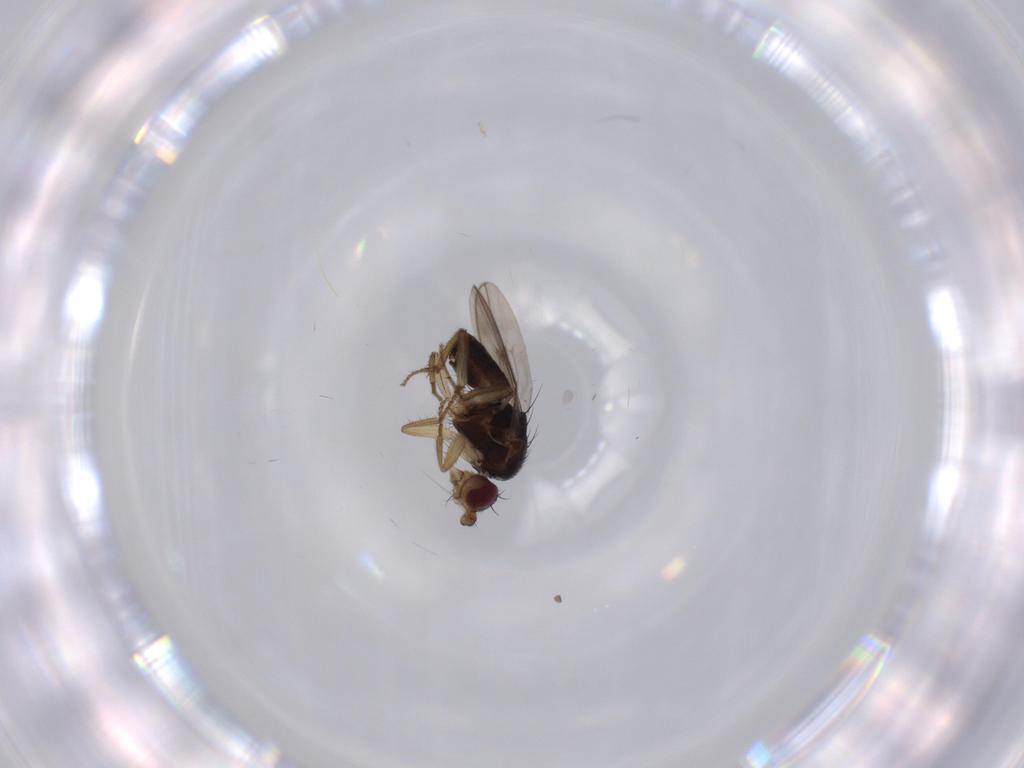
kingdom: Animalia
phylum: Arthropoda
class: Insecta
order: Diptera
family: Sphaeroceridae
